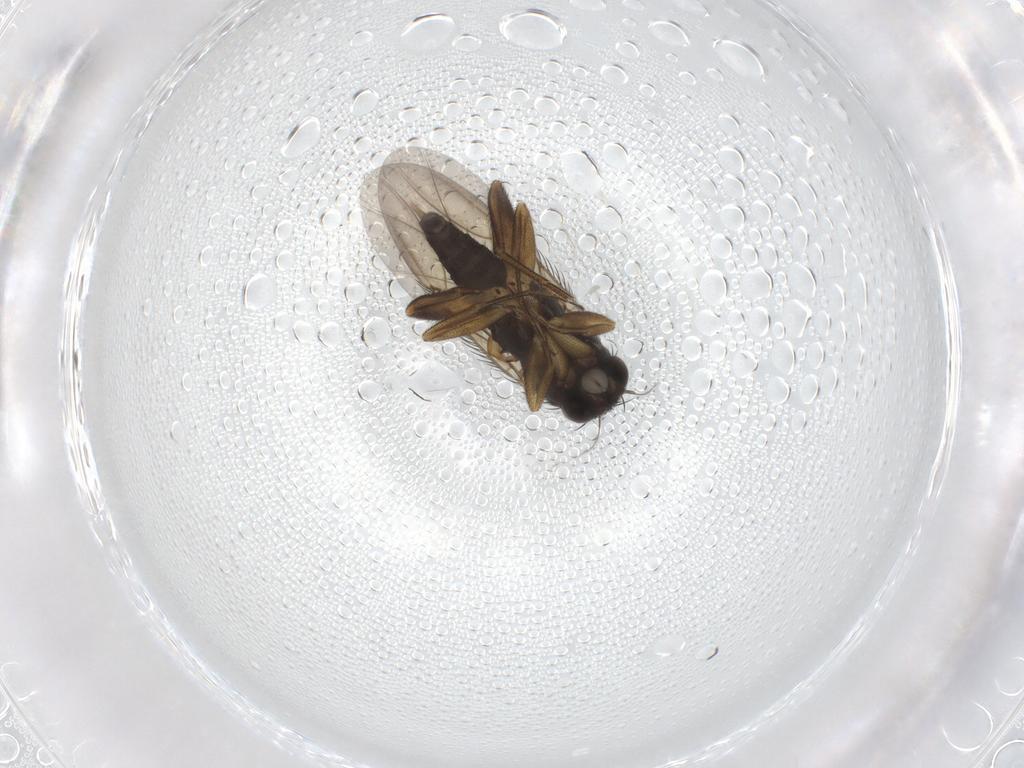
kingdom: Animalia
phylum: Arthropoda
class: Insecta
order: Diptera
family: Phoridae
